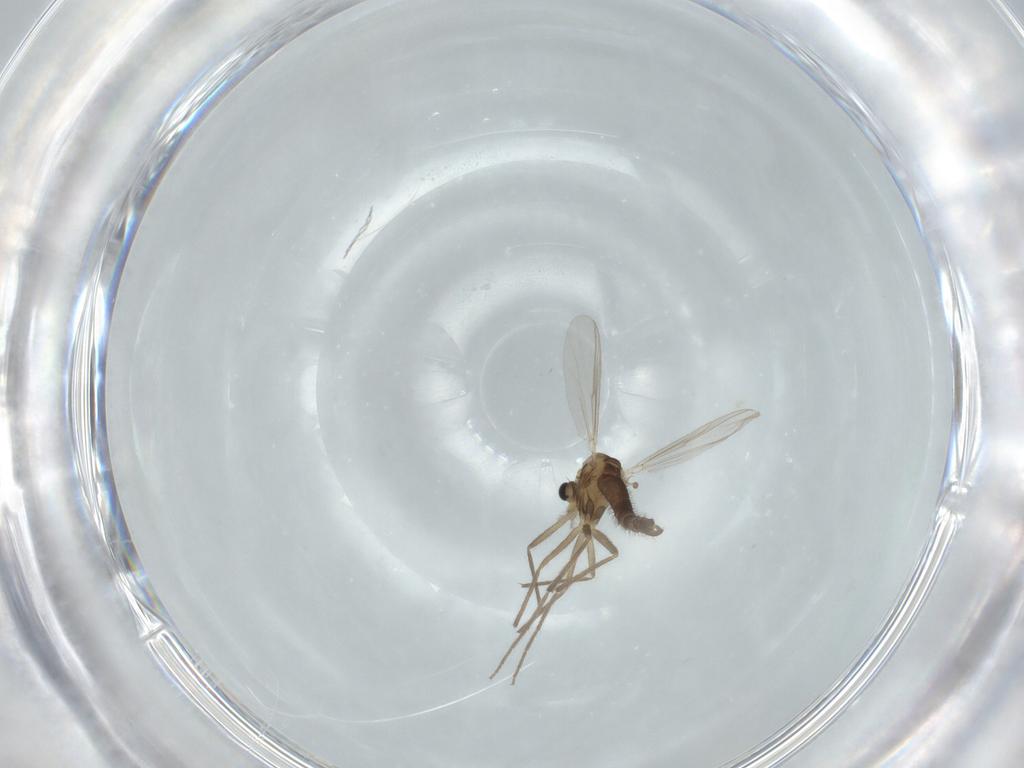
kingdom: Animalia
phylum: Arthropoda
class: Insecta
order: Diptera
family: Chironomidae
